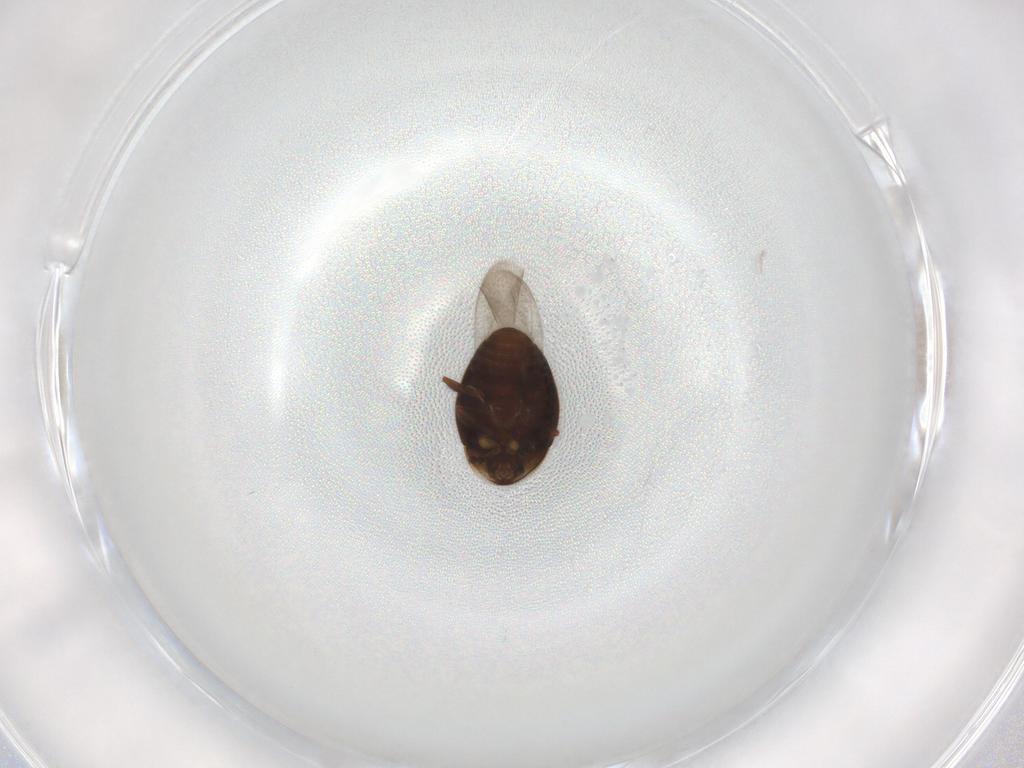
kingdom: Animalia
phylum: Arthropoda
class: Insecta
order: Coleoptera
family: Corylophidae
